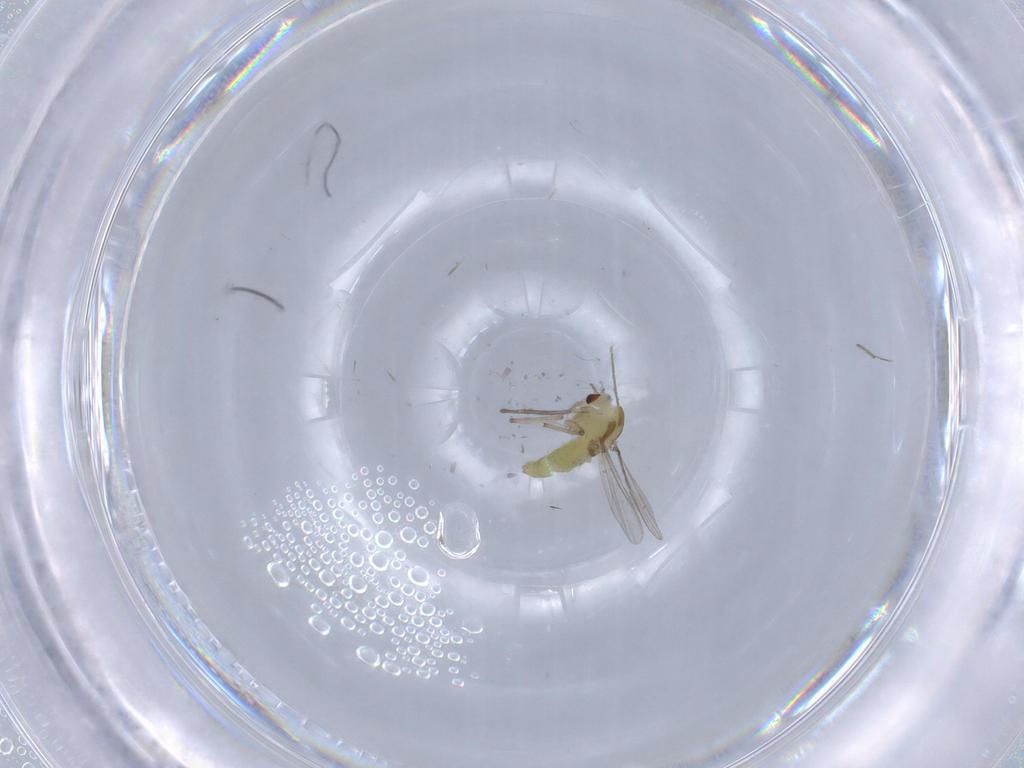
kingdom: Animalia
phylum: Arthropoda
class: Insecta
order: Diptera
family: Chironomidae
